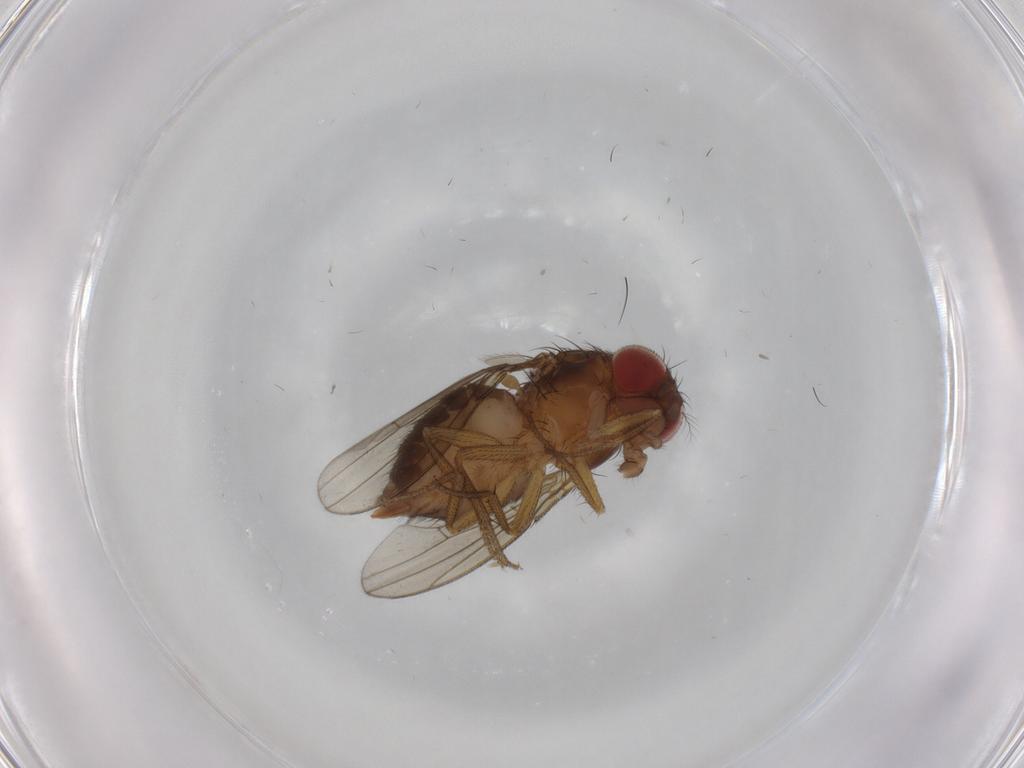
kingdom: Animalia
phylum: Arthropoda
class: Insecta
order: Diptera
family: Drosophilidae
